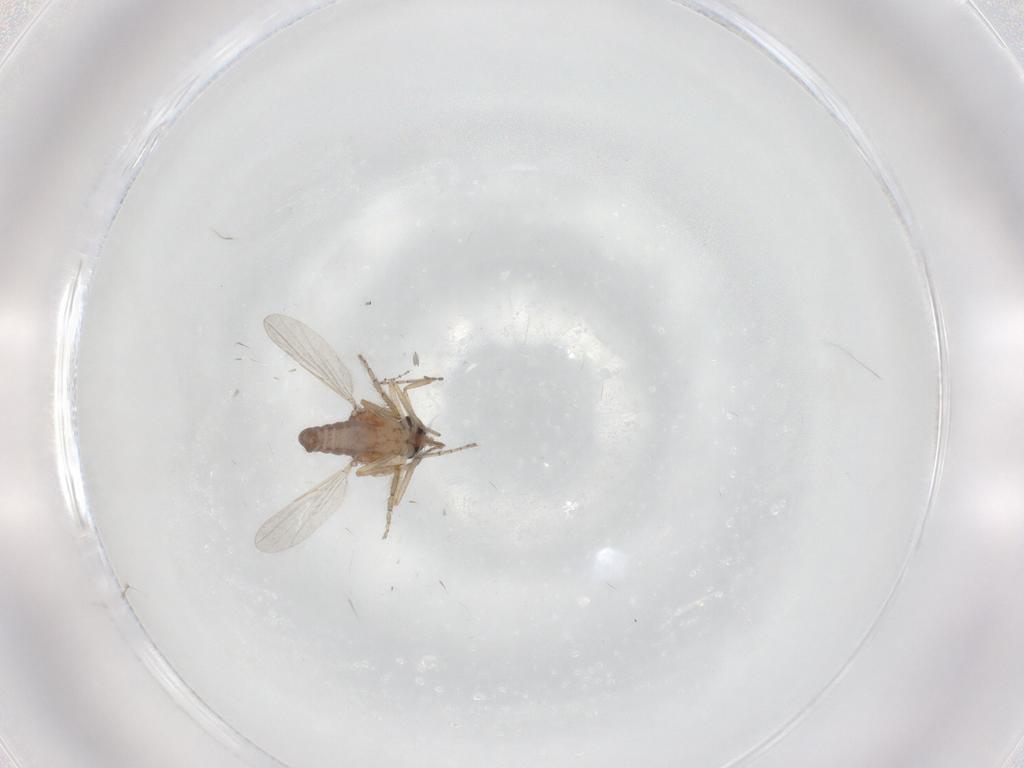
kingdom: Animalia
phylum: Arthropoda
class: Insecta
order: Diptera
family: Ceratopogonidae
